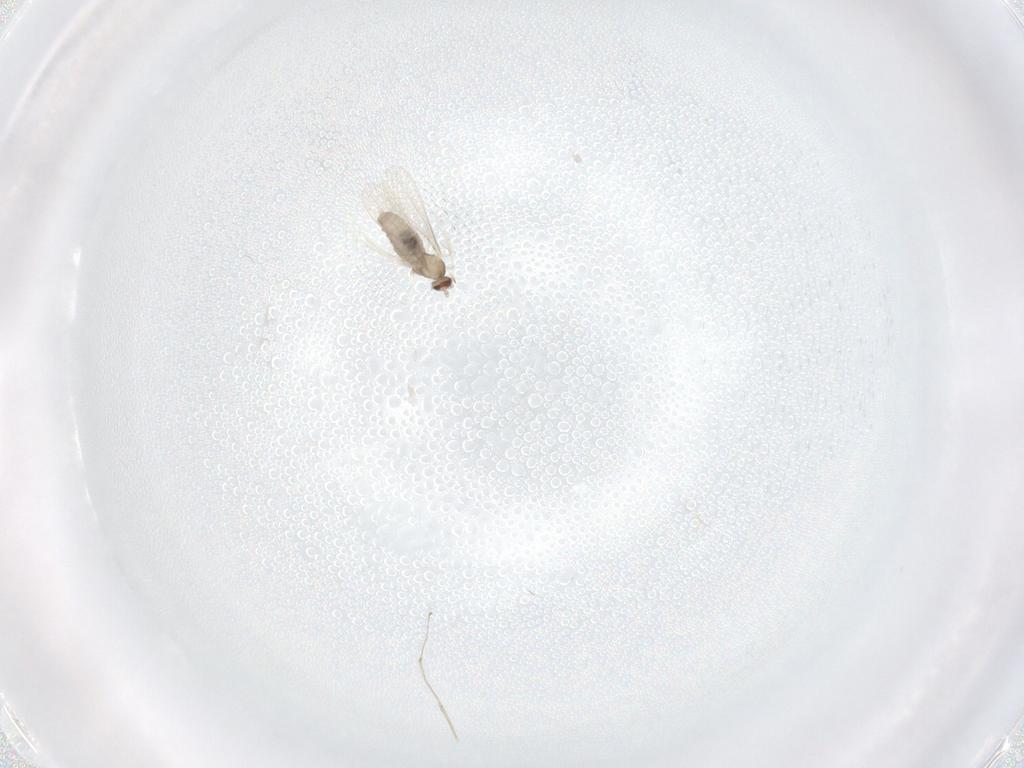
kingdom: Animalia
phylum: Arthropoda
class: Insecta
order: Diptera
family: Cecidomyiidae
